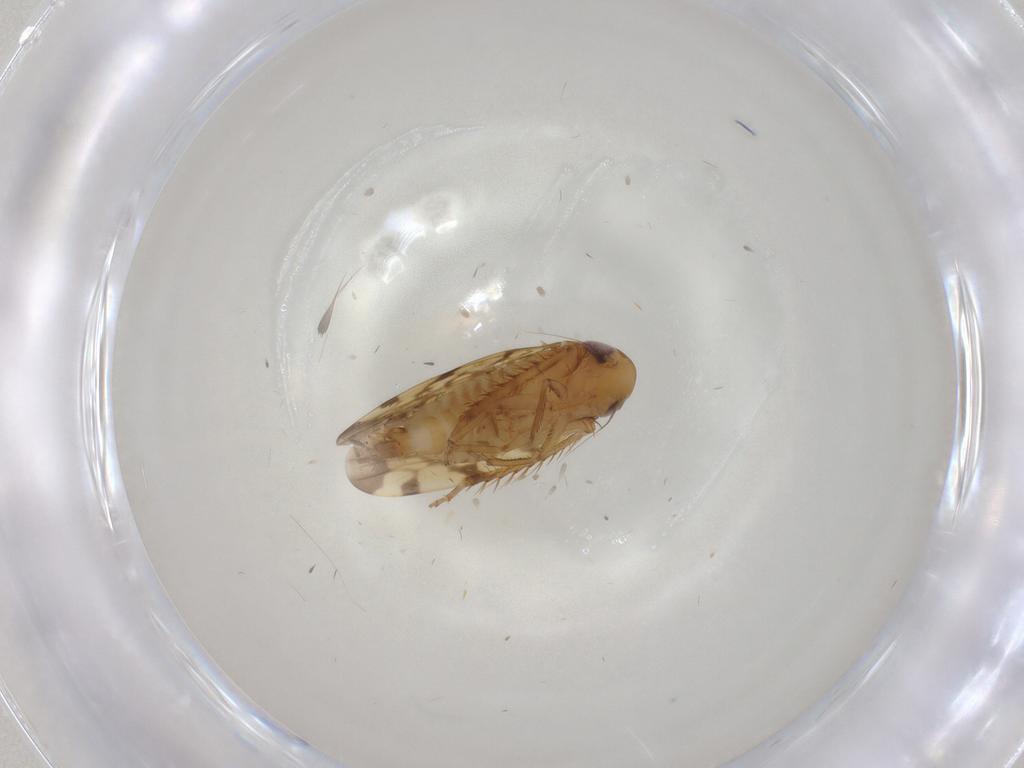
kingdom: Animalia
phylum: Arthropoda
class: Insecta
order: Hemiptera
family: Cicadellidae
